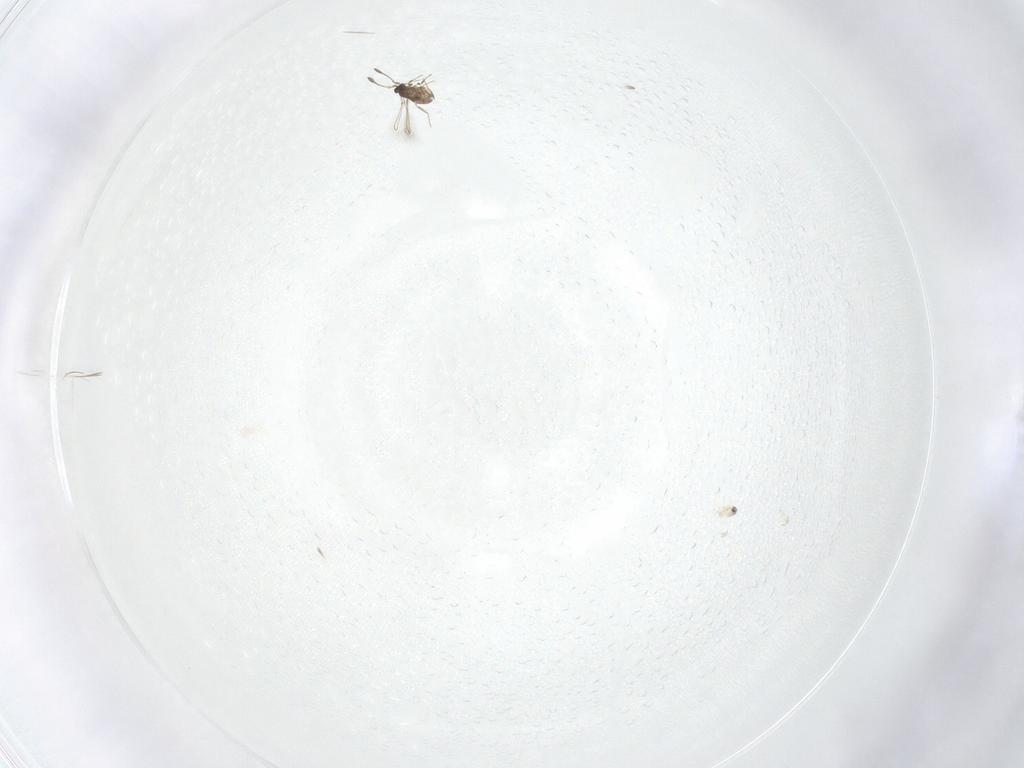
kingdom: Animalia
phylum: Arthropoda
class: Insecta
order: Hymenoptera
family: Mymaridae
